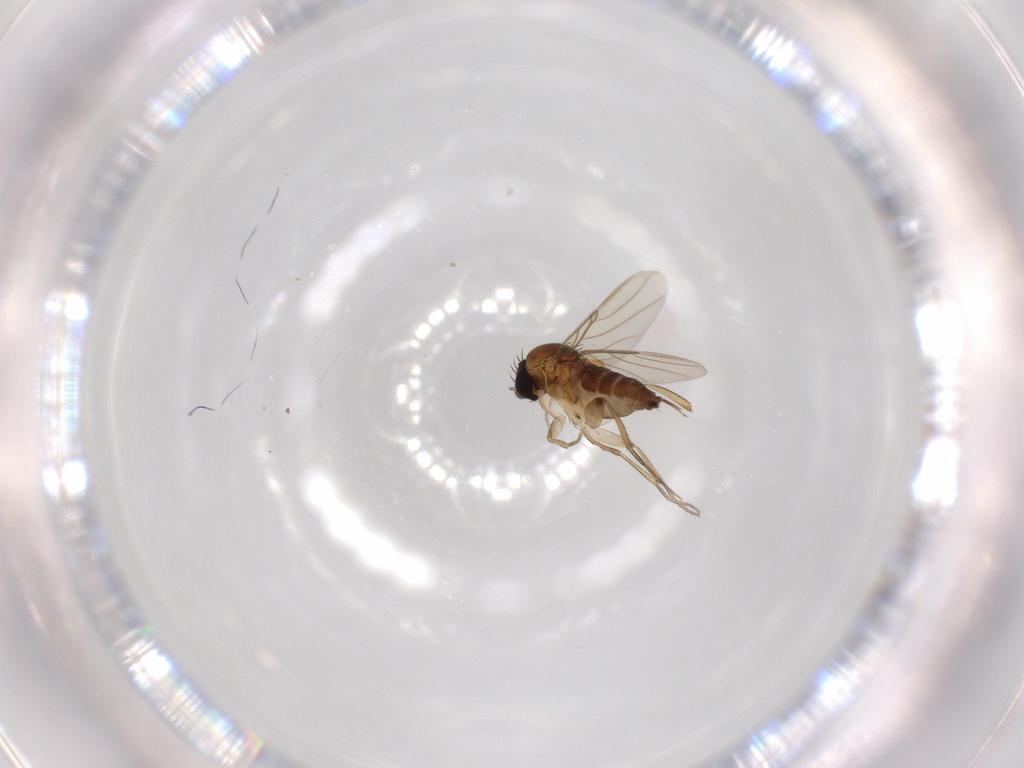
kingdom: Animalia
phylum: Arthropoda
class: Insecta
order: Diptera
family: Phoridae
